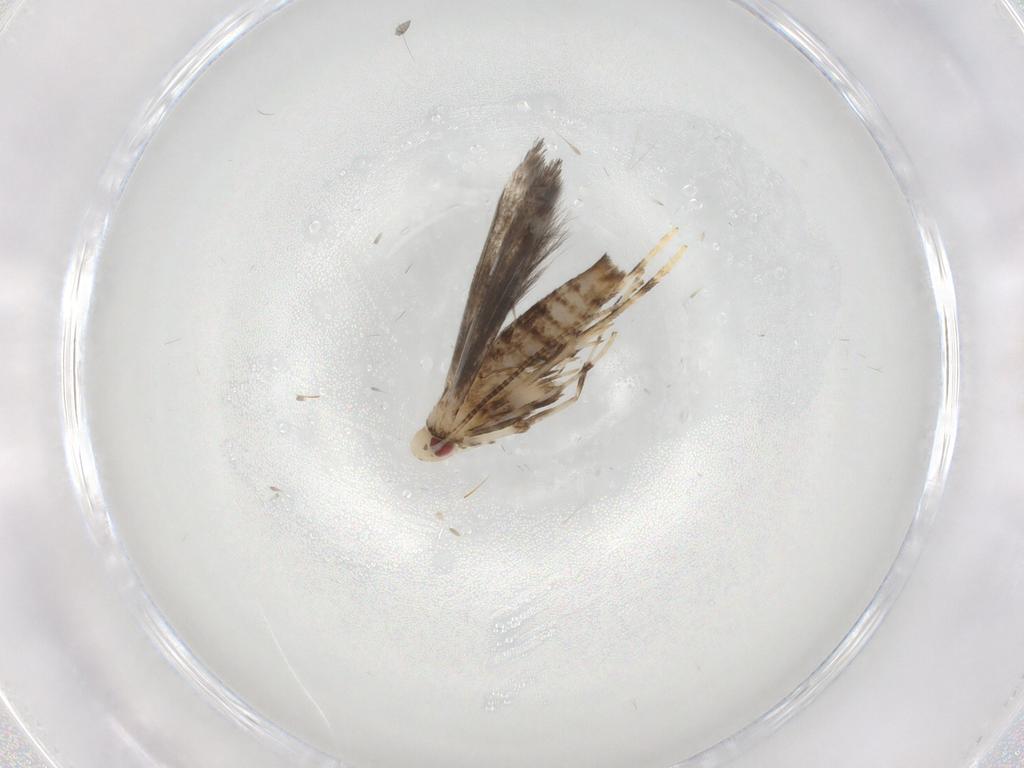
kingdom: Animalia
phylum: Arthropoda
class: Insecta
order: Lepidoptera
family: Gracillariidae
